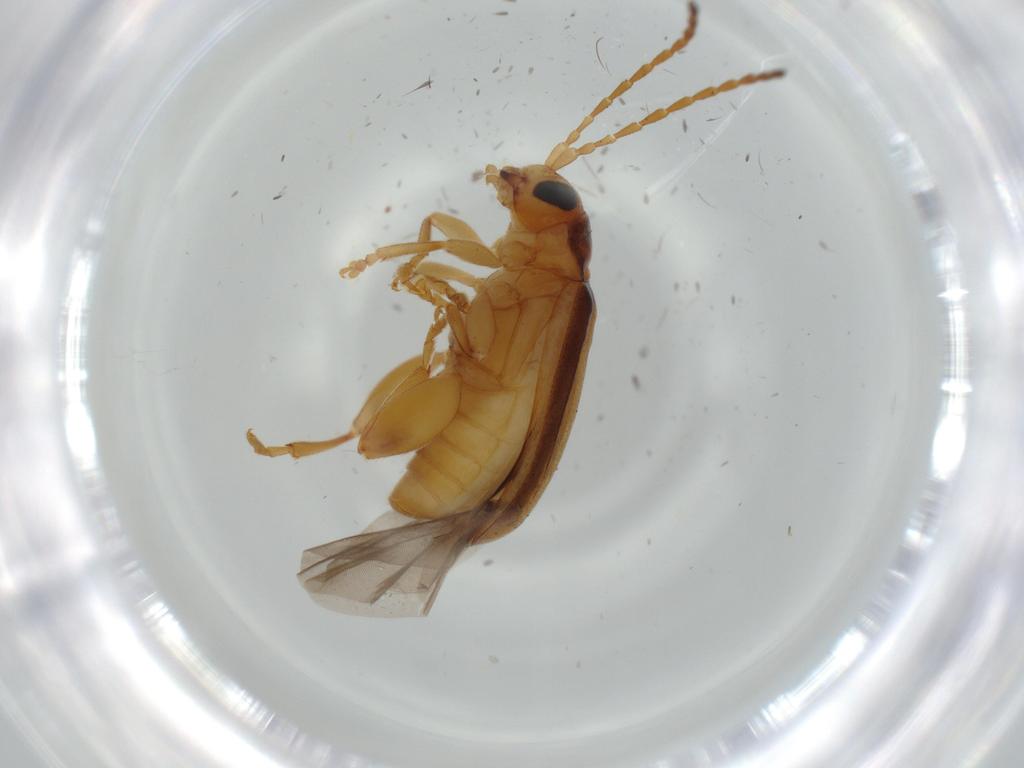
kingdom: Animalia
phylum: Arthropoda
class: Insecta
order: Coleoptera
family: Chrysomelidae
